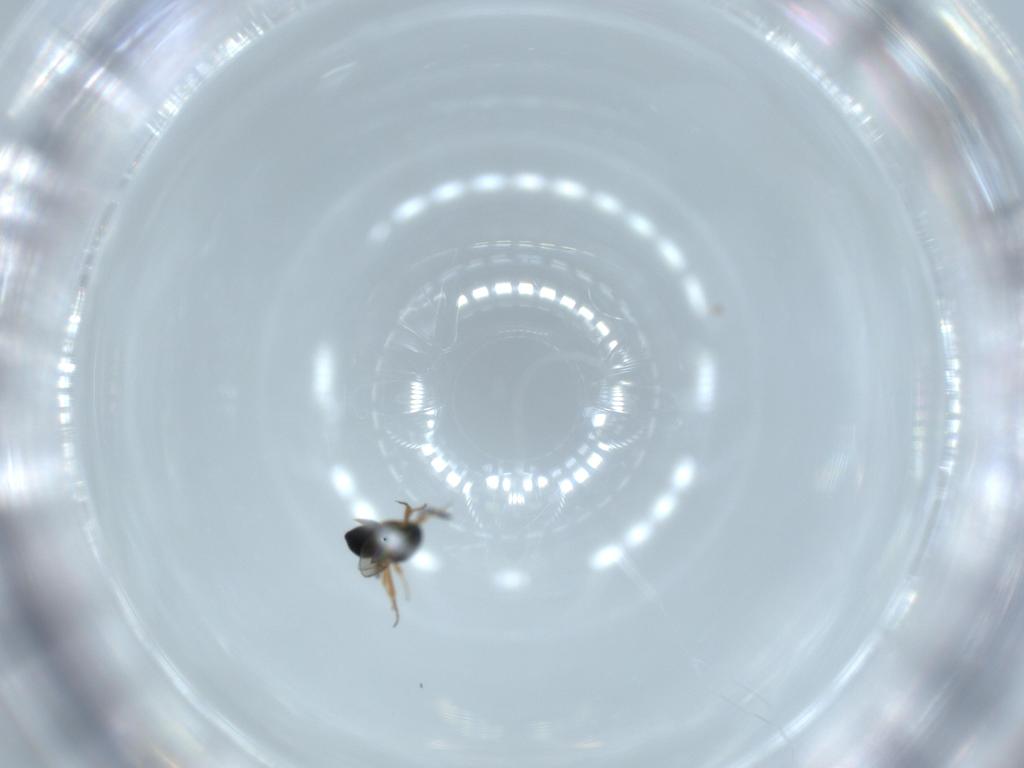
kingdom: Animalia
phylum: Arthropoda
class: Insecta
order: Hymenoptera
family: Scelionidae
